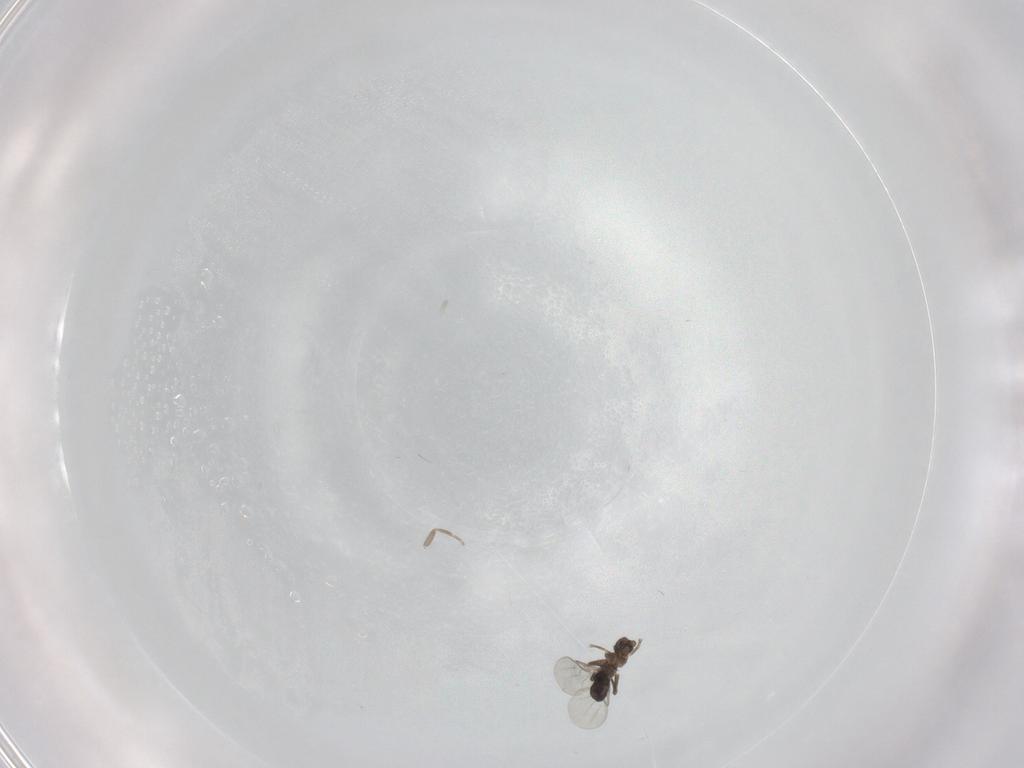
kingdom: Animalia
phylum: Arthropoda
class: Insecta
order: Diptera
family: Phoridae
